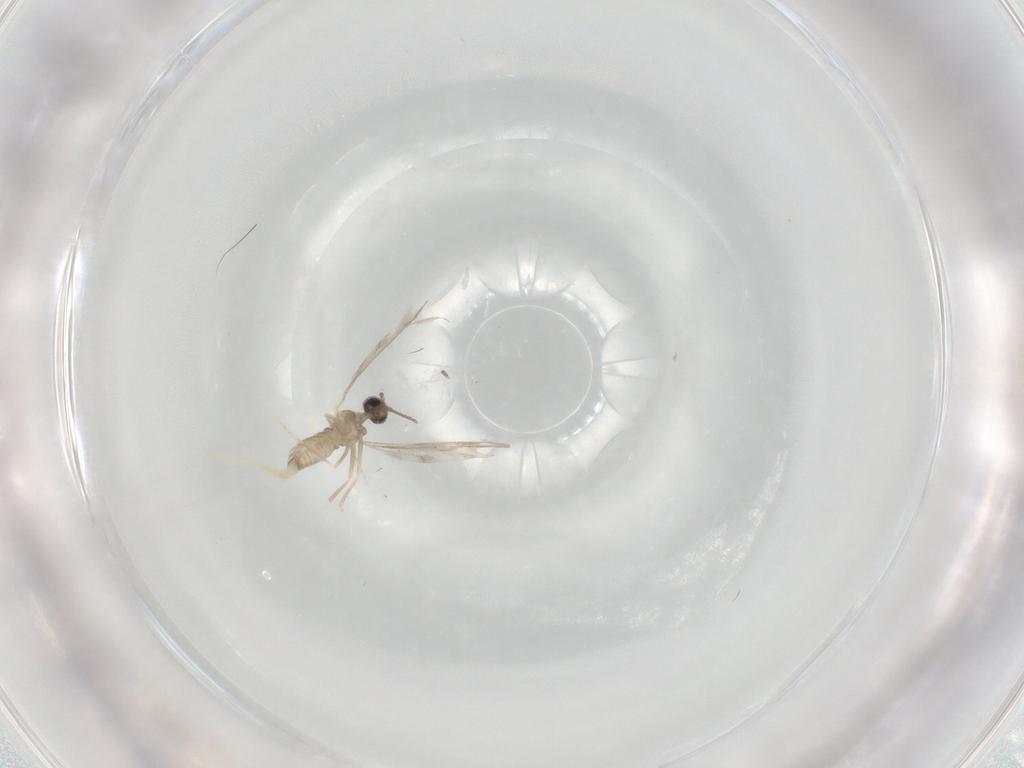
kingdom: Animalia
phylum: Arthropoda
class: Insecta
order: Diptera
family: Cecidomyiidae
